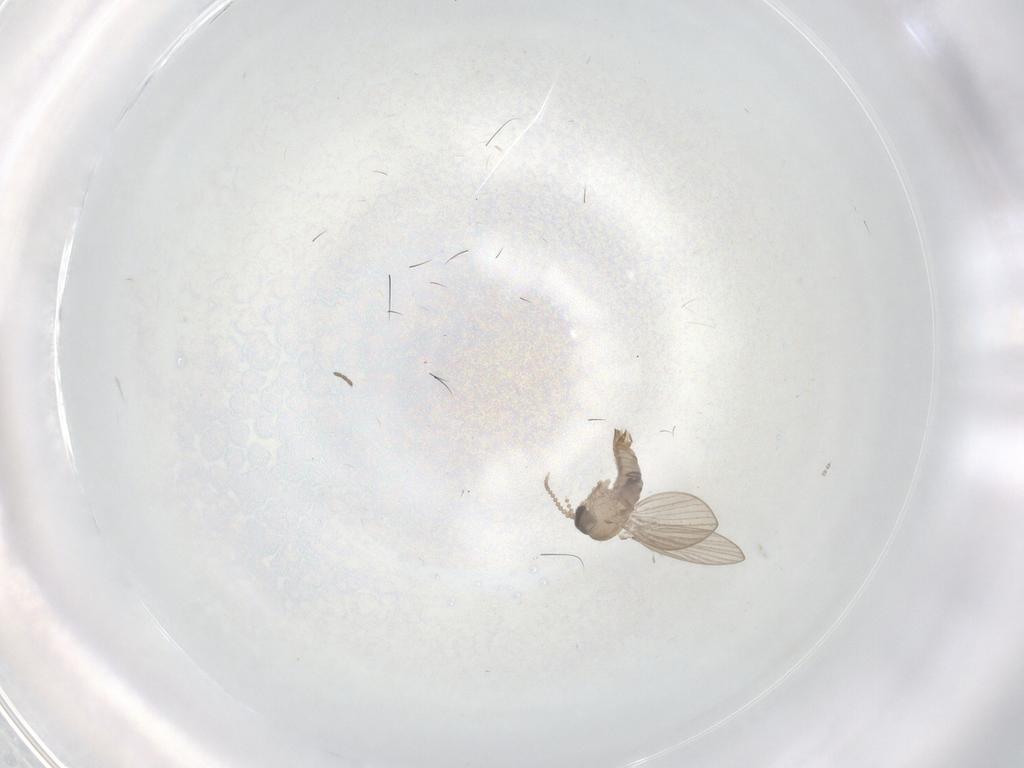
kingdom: Animalia
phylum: Arthropoda
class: Insecta
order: Diptera
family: Psychodidae
